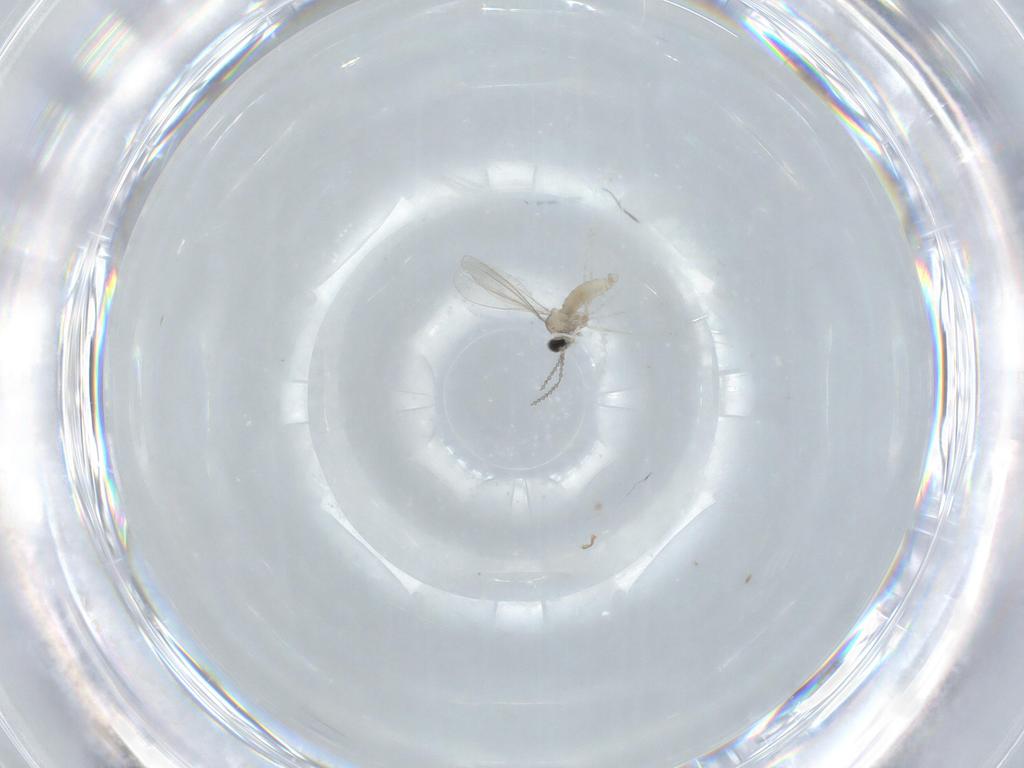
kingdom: Animalia
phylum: Arthropoda
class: Insecta
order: Diptera
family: Cecidomyiidae
